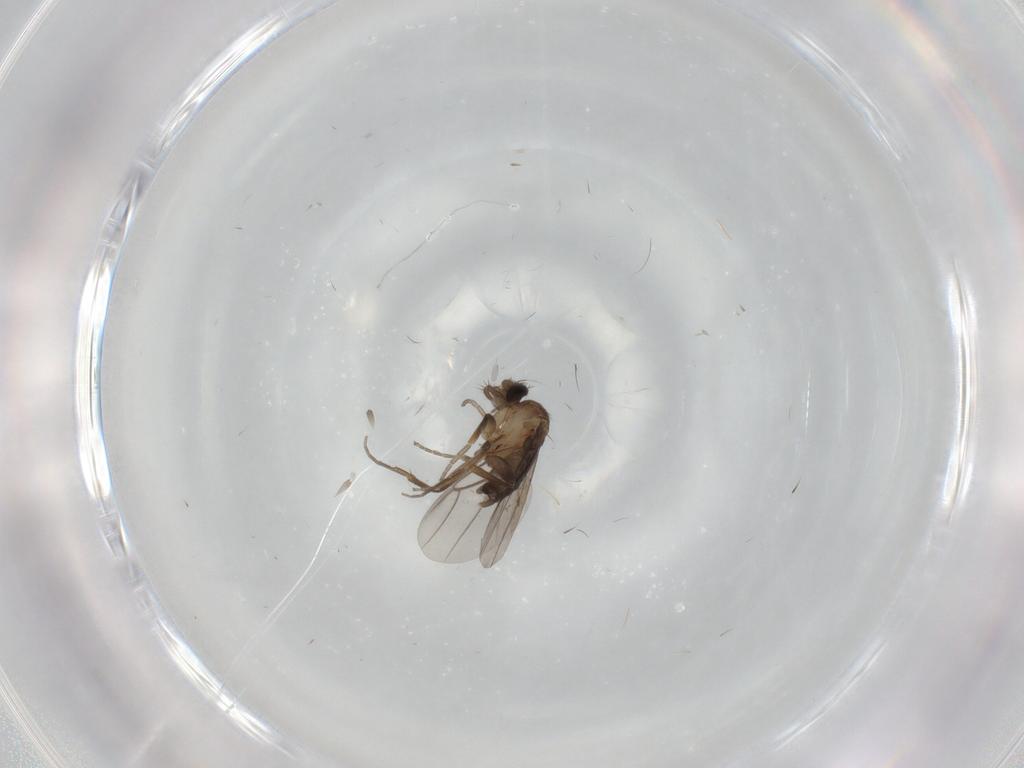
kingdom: Animalia
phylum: Arthropoda
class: Insecta
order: Diptera
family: Phoridae
